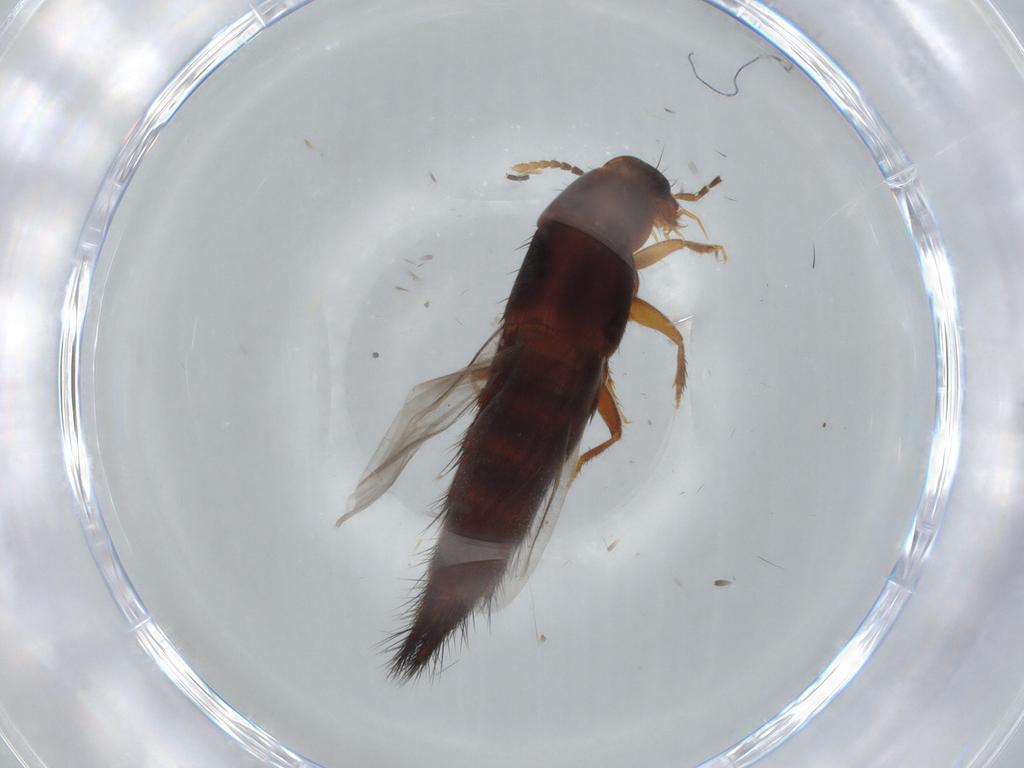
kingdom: Animalia
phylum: Arthropoda
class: Insecta
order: Coleoptera
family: Staphylinidae
